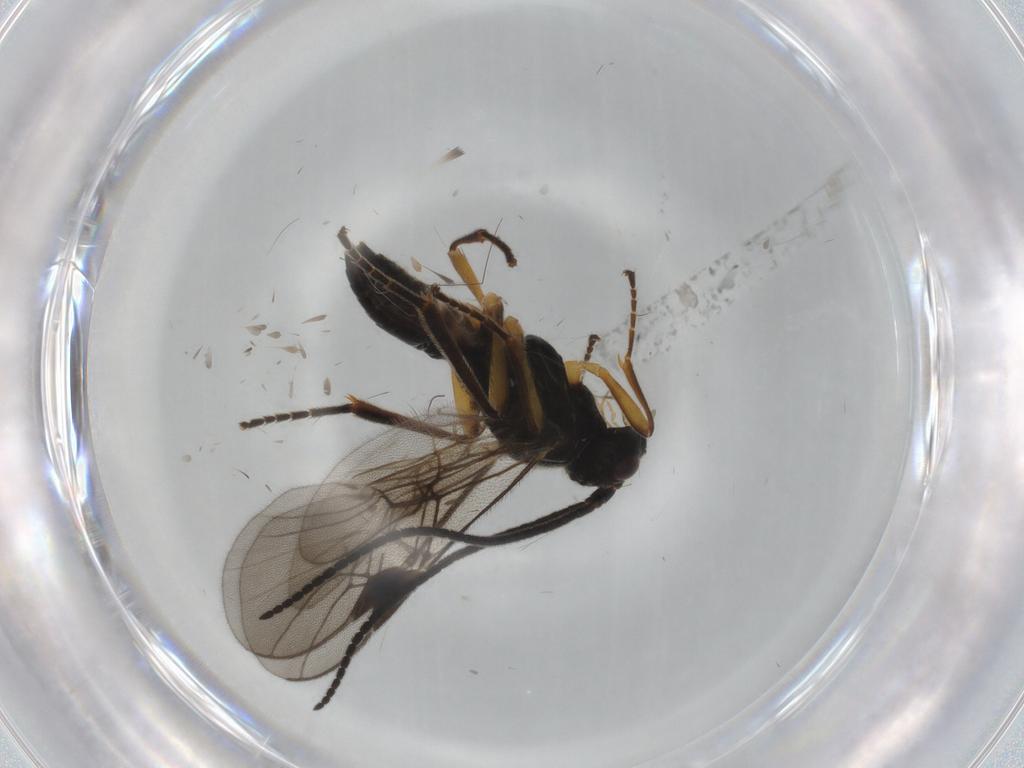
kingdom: Animalia
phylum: Arthropoda
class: Insecta
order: Hymenoptera
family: Braconidae
